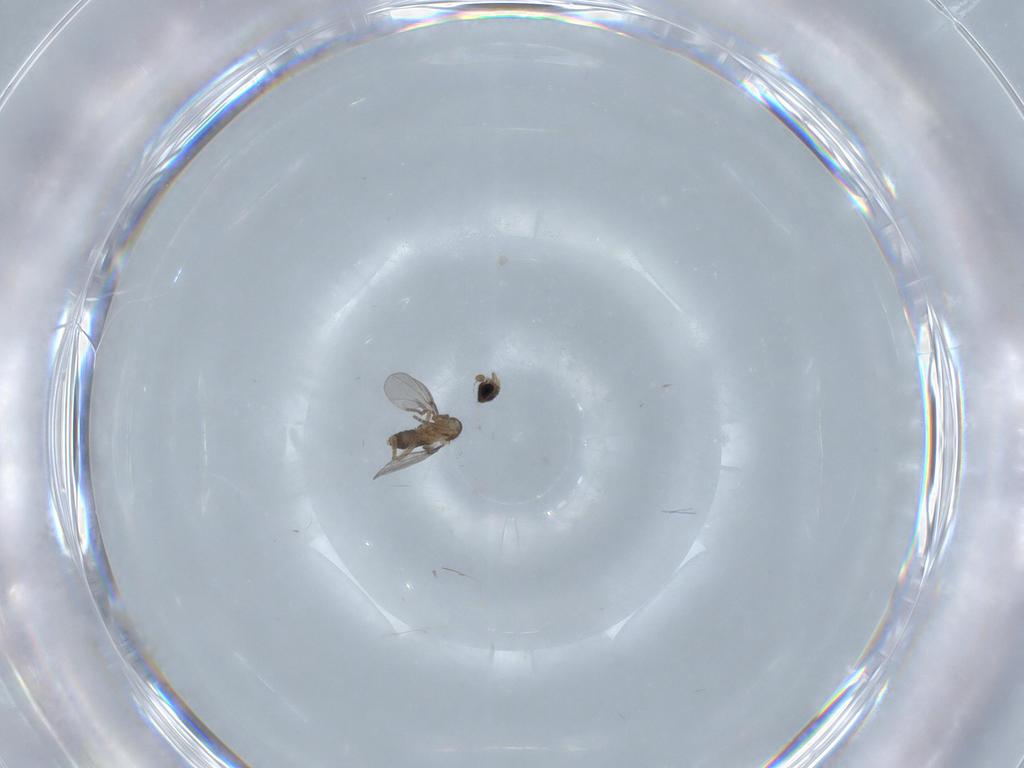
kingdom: Animalia
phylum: Arthropoda
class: Insecta
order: Diptera
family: Phoridae
